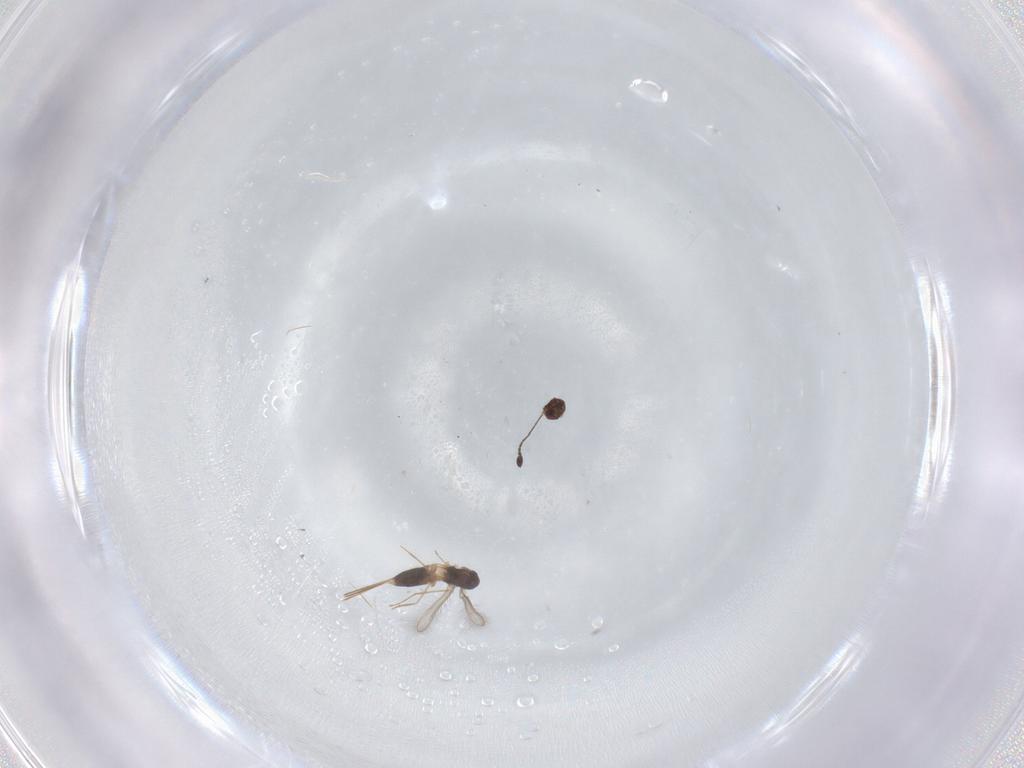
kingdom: Animalia
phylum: Arthropoda
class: Insecta
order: Hymenoptera
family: Mymaridae
